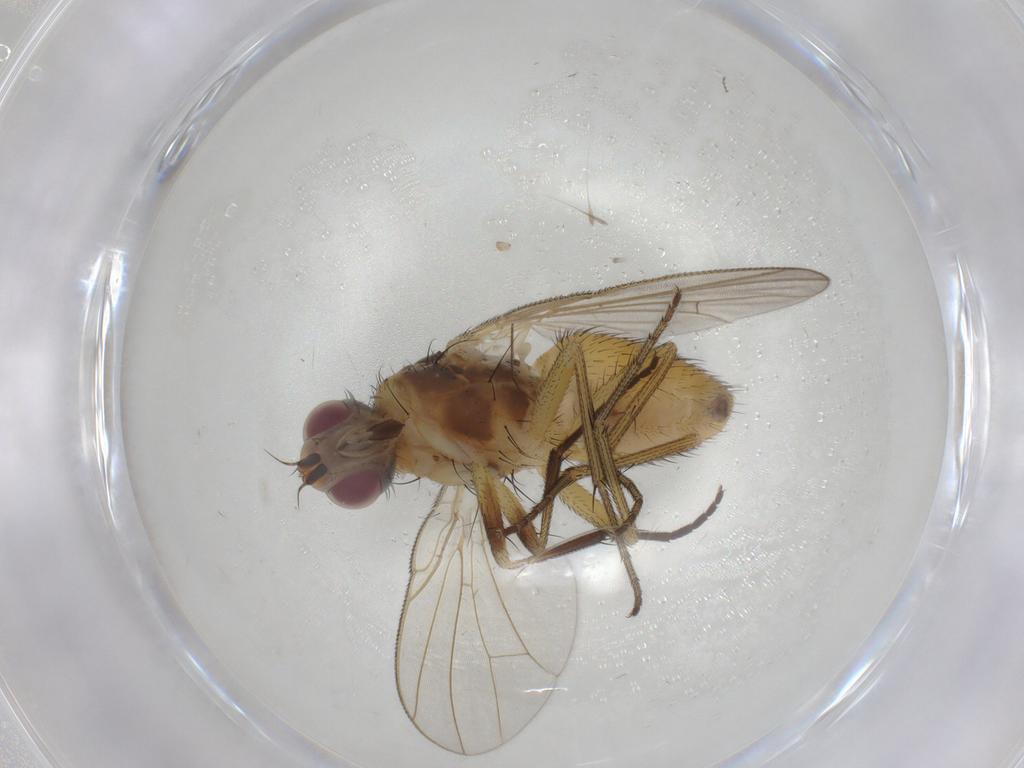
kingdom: Animalia
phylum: Arthropoda
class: Insecta
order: Diptera
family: Muscidae
